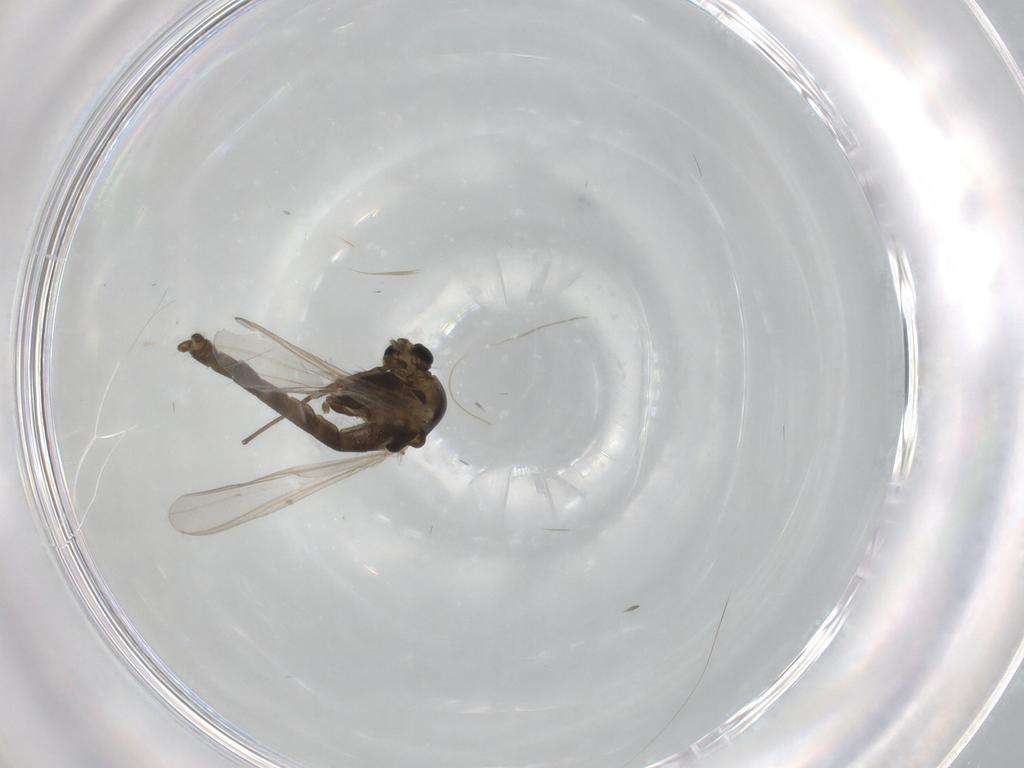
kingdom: Animalia
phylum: Arthropoda
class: Insecta
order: Diptera
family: Chironomidae
